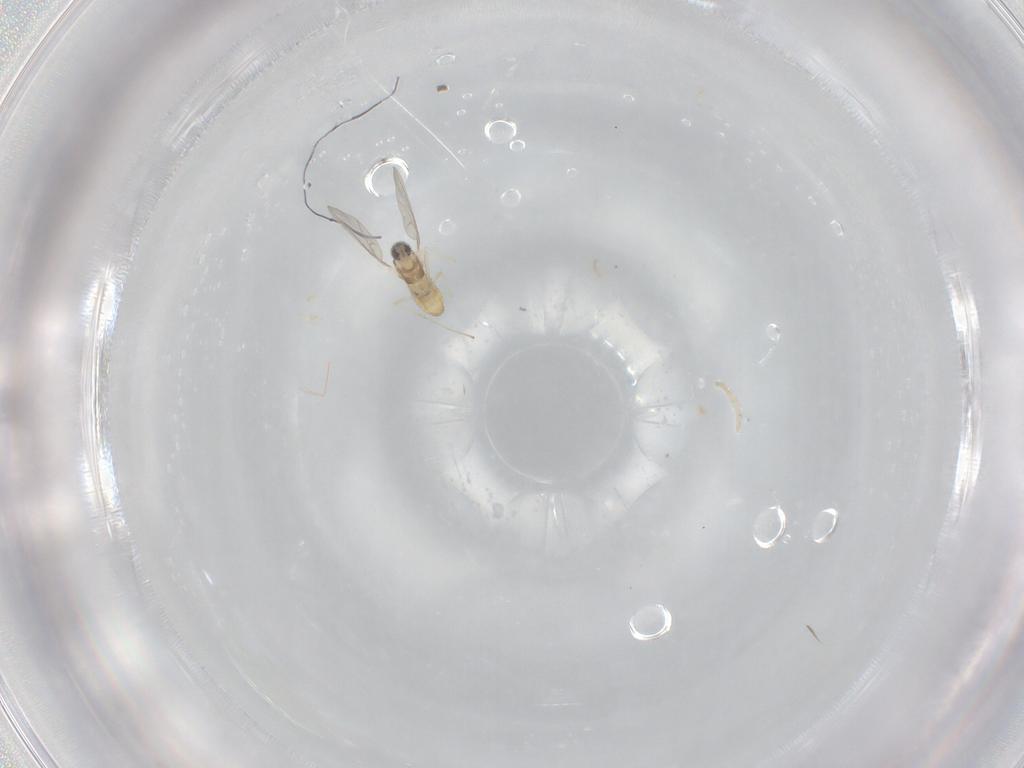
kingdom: Animalia
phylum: Arthropoda
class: Insecta
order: Diptera
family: Cecidomyiidae
